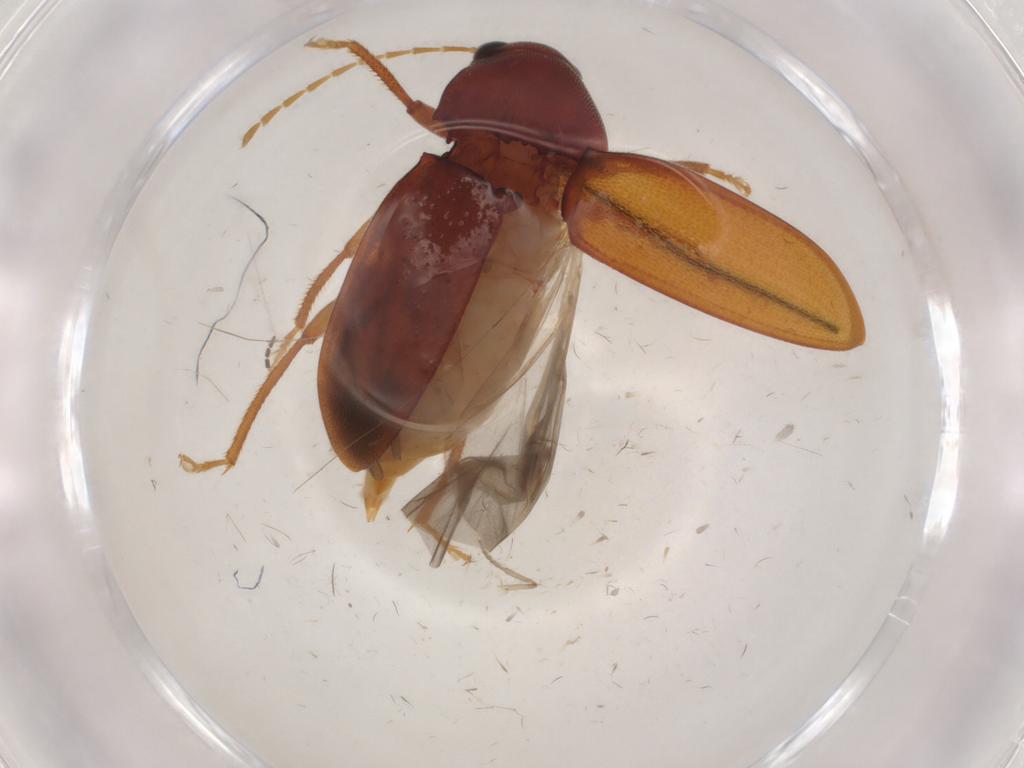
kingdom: Animalia
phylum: Arthropoda
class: Insecta
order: Coleoptera
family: Ptilodactylidae
